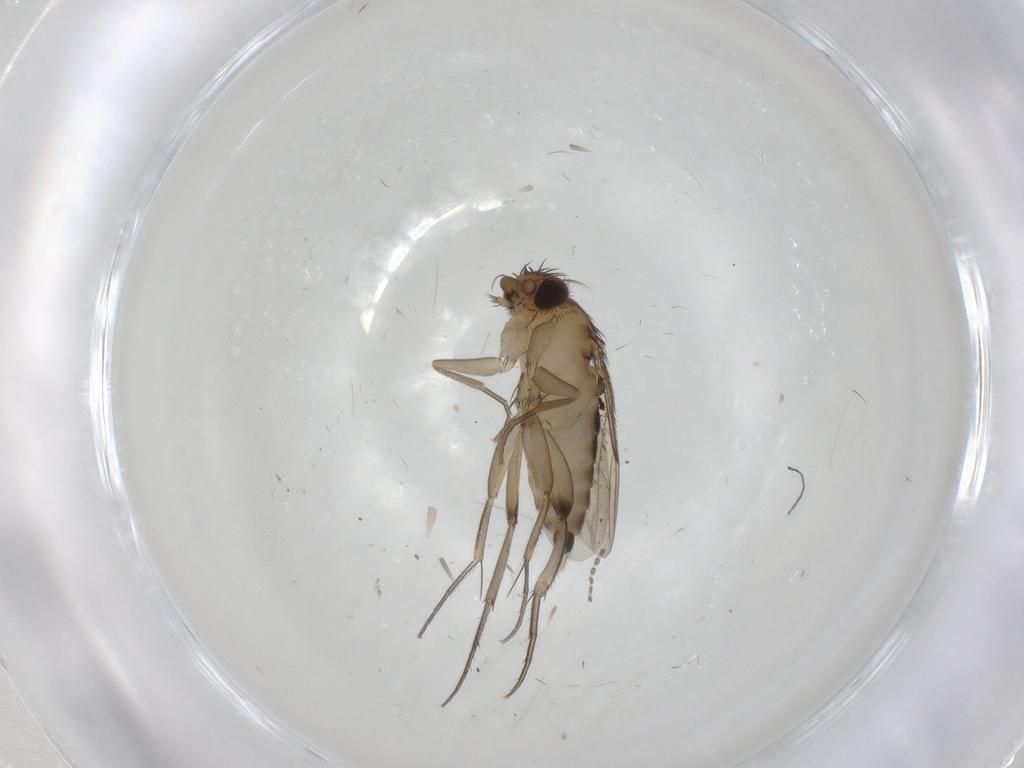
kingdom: Animalia
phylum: Arthropoda
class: Insecta
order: Diptera
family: Phoridae
